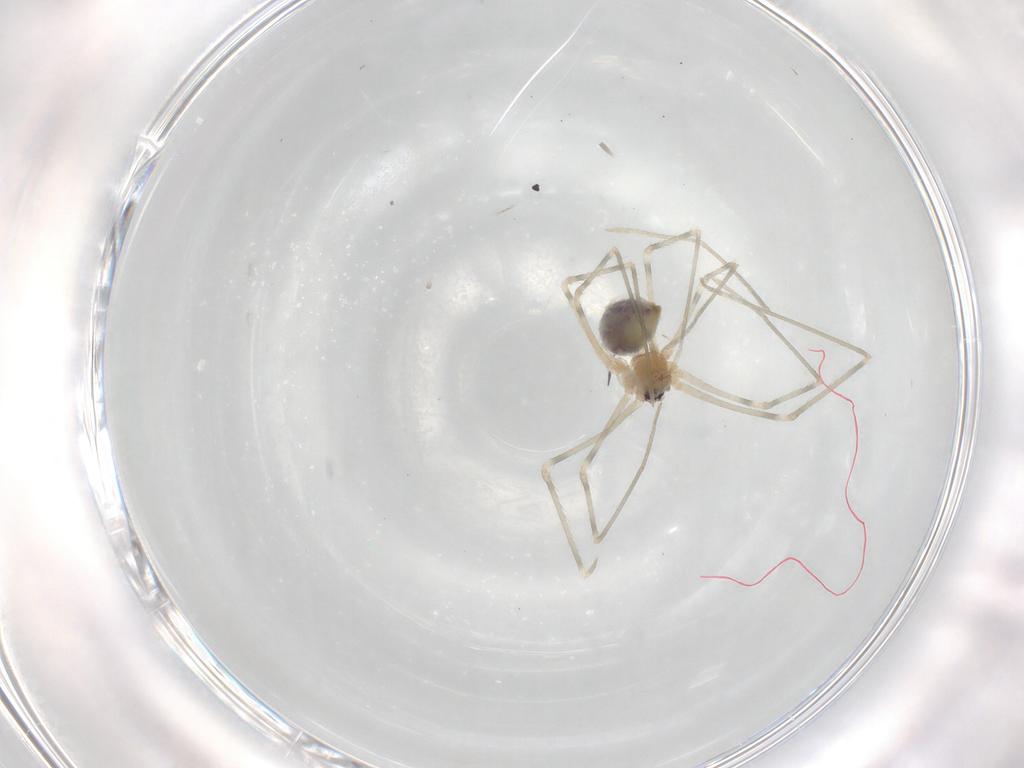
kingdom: Animalia
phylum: Arthropoda
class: Arachnida
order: Araneae
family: Pholcidae
